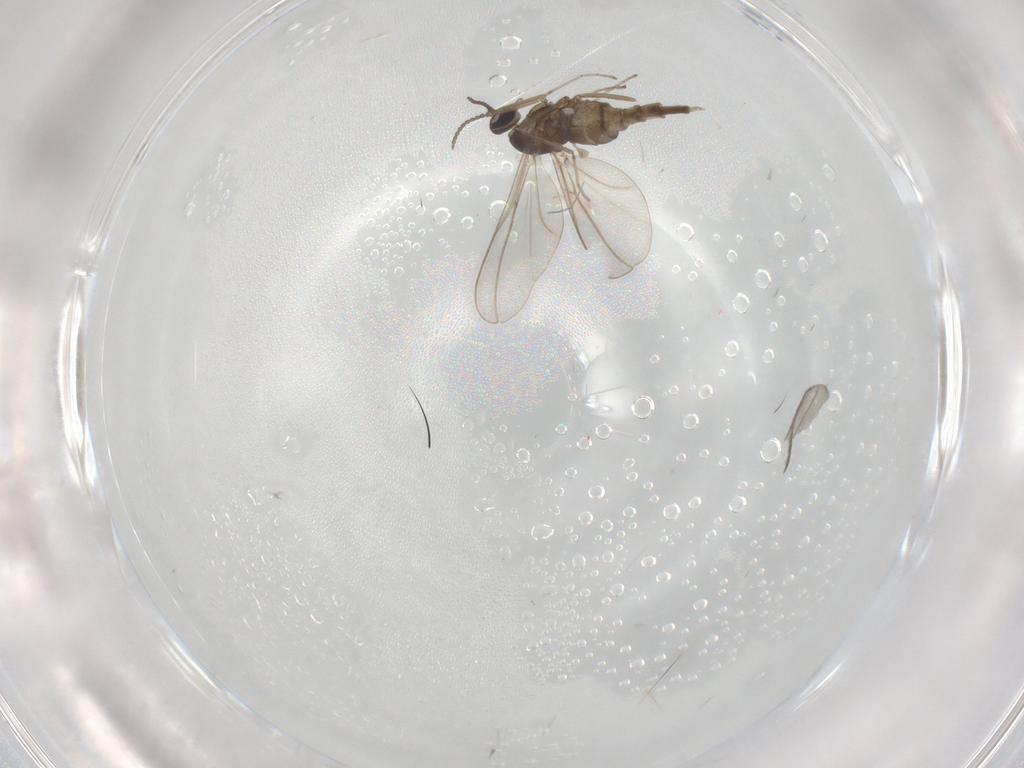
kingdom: Animalia
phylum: Arthropoda
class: Insecta
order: Diptera
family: Sciaridae
